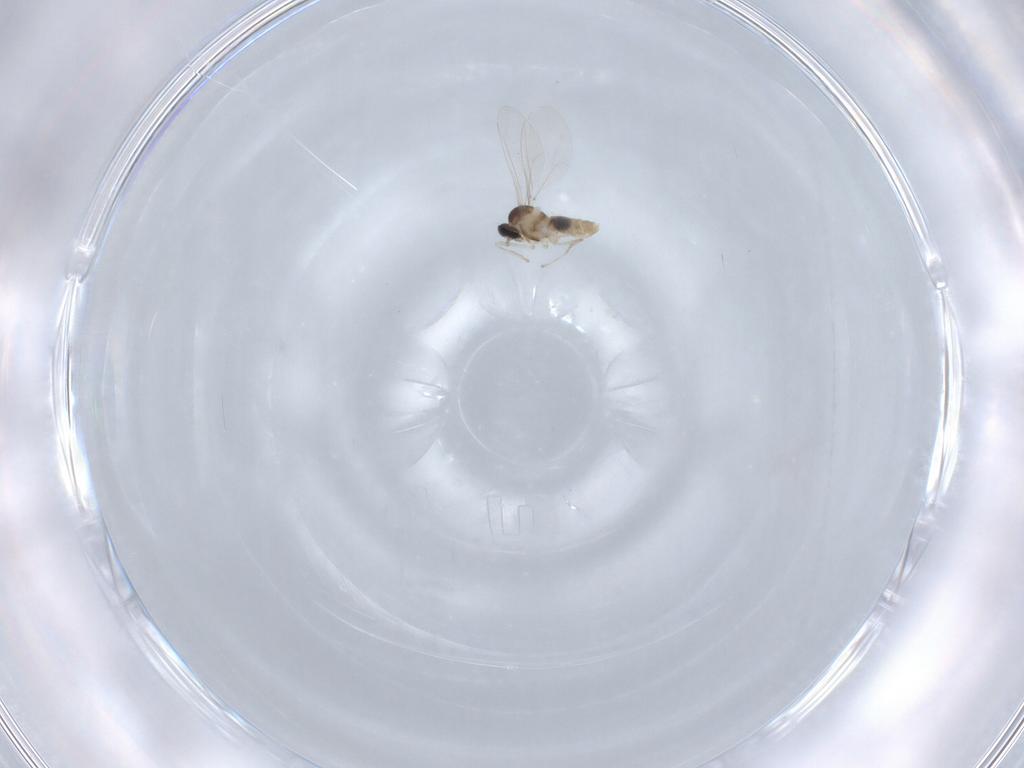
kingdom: Animalia
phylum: Arthropoda
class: Insecta
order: Diptera
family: Cecidomyiidae
